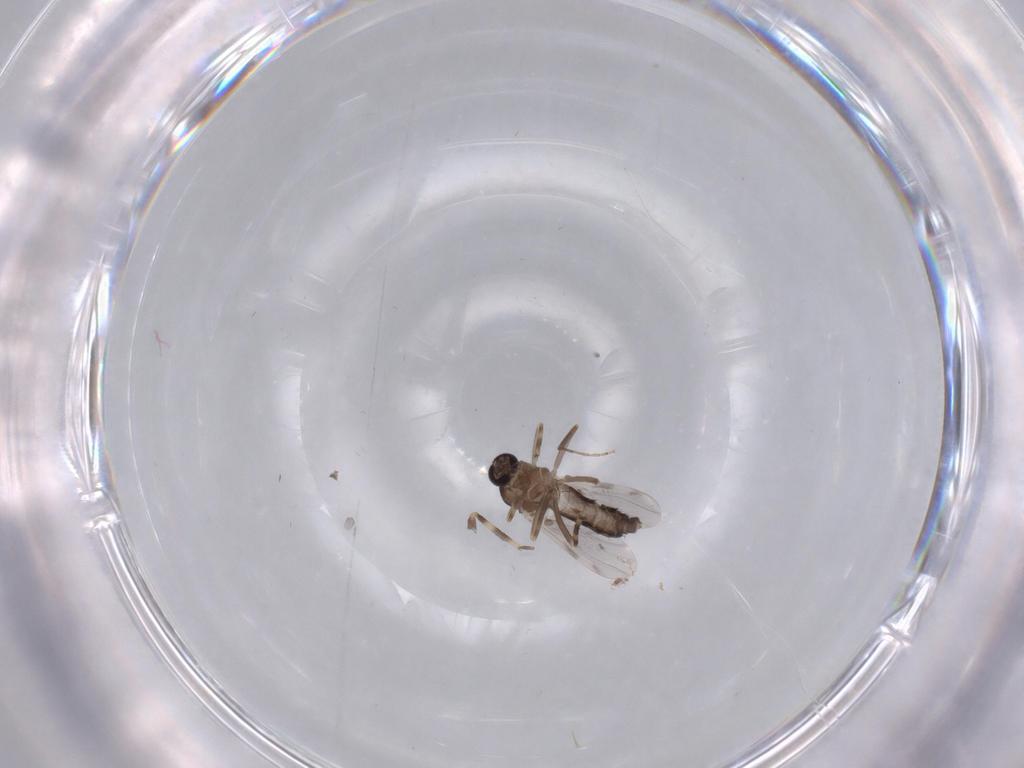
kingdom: Animalia
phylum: Arthropoda
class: Insecta
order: Diptera
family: Ceratopogonidae
